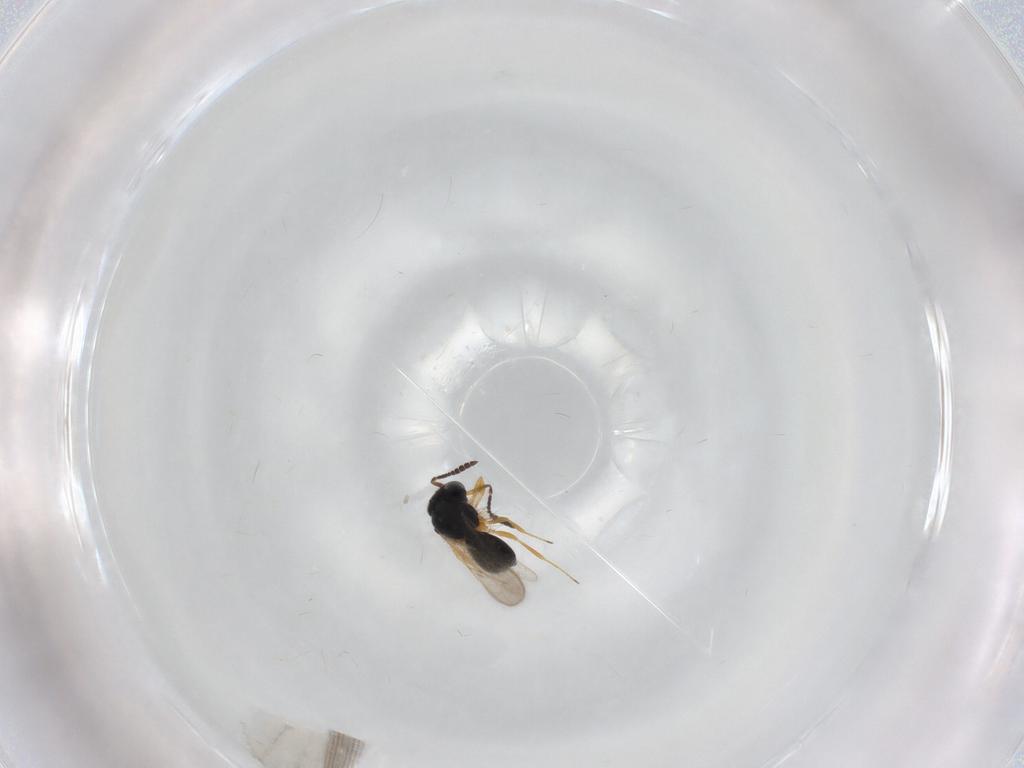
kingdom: Animalia
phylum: Arthropoda
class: Insecta
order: Hymenoptera
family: Scelionidae
